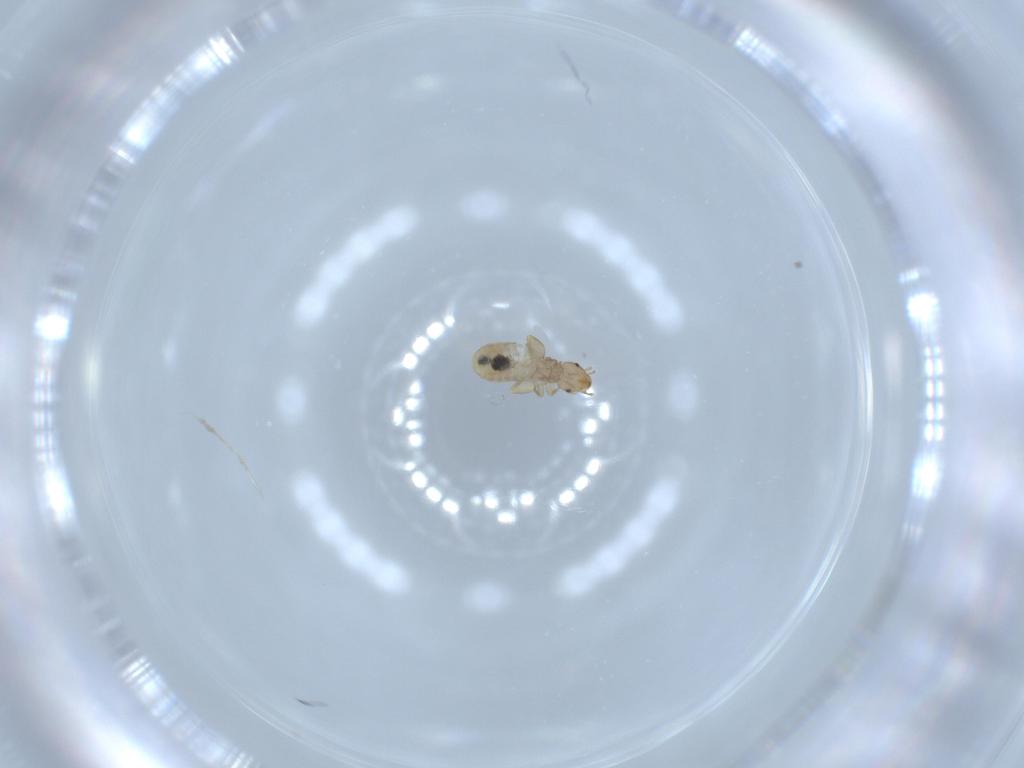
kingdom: Animalia
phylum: Arthropoda
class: Insecta
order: Psocodea
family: Liposcelididae
